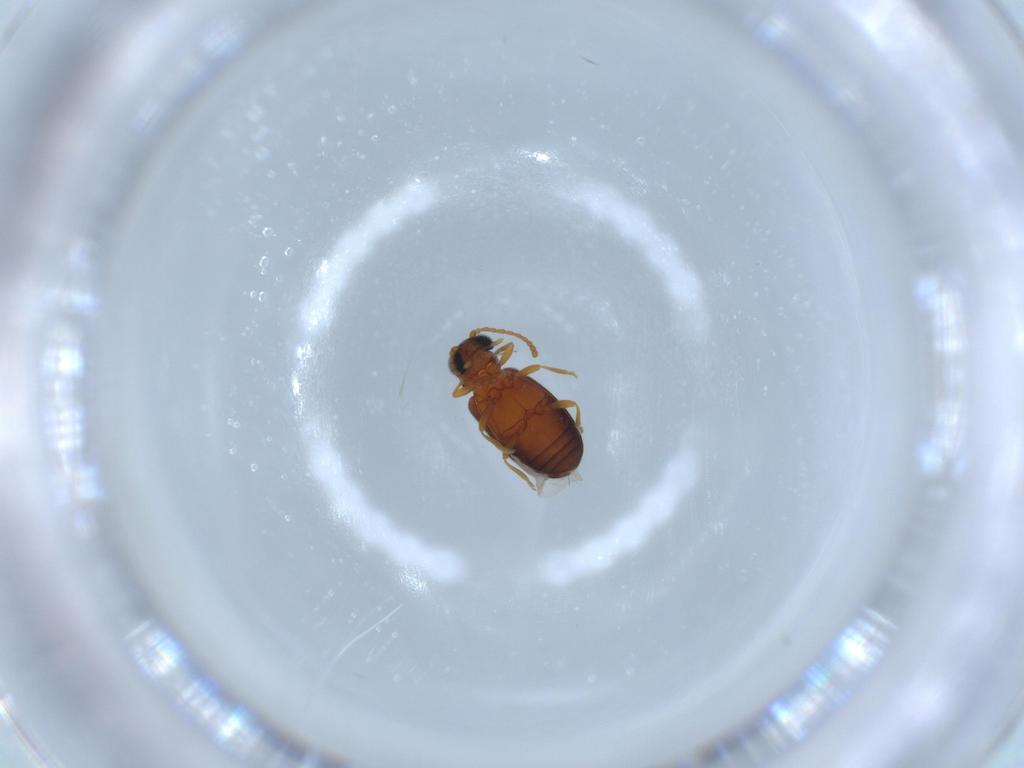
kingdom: Animalia
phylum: Arthropoda
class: Insecta
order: Coleoptera
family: Aderidae
